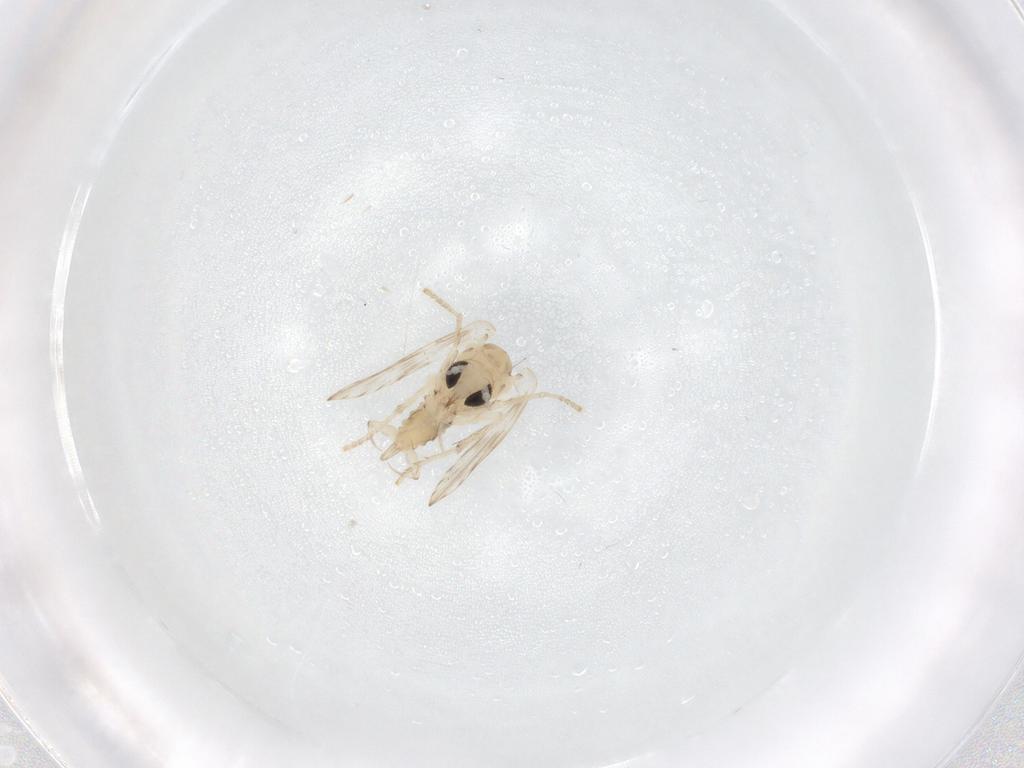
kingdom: Animalia
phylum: Arthropoda
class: Insecta
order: Diptera
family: Psychodidae
